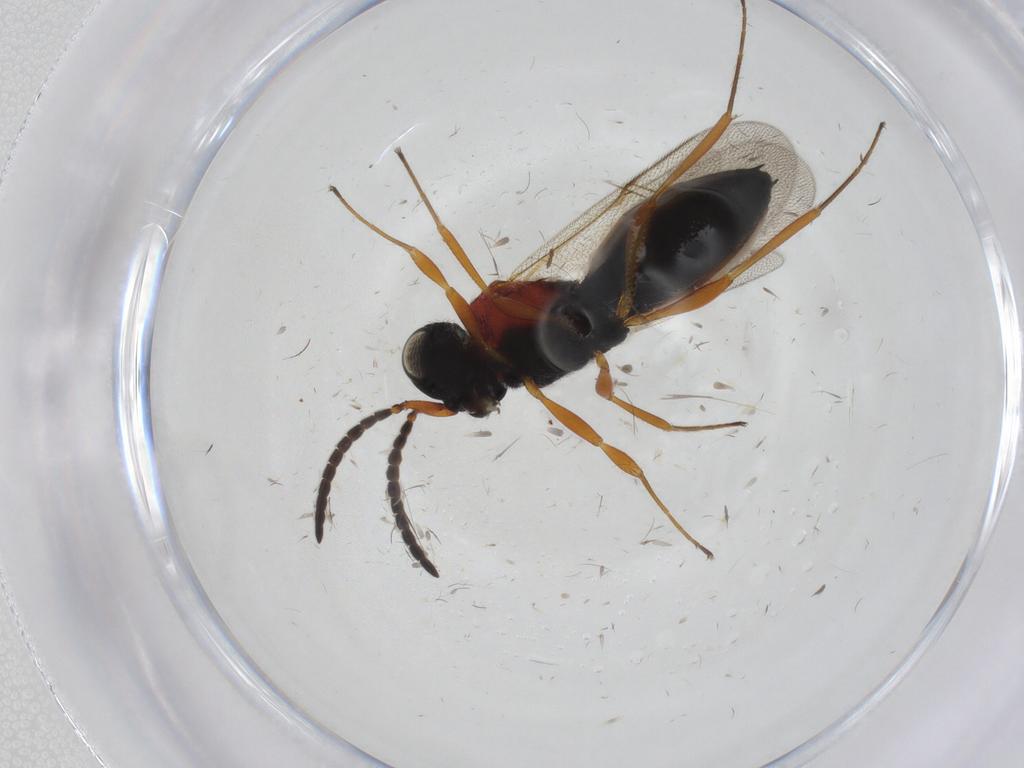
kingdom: Animalia
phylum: Arthropoda
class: Insecta
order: Hymenoptera
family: Scelionidae
